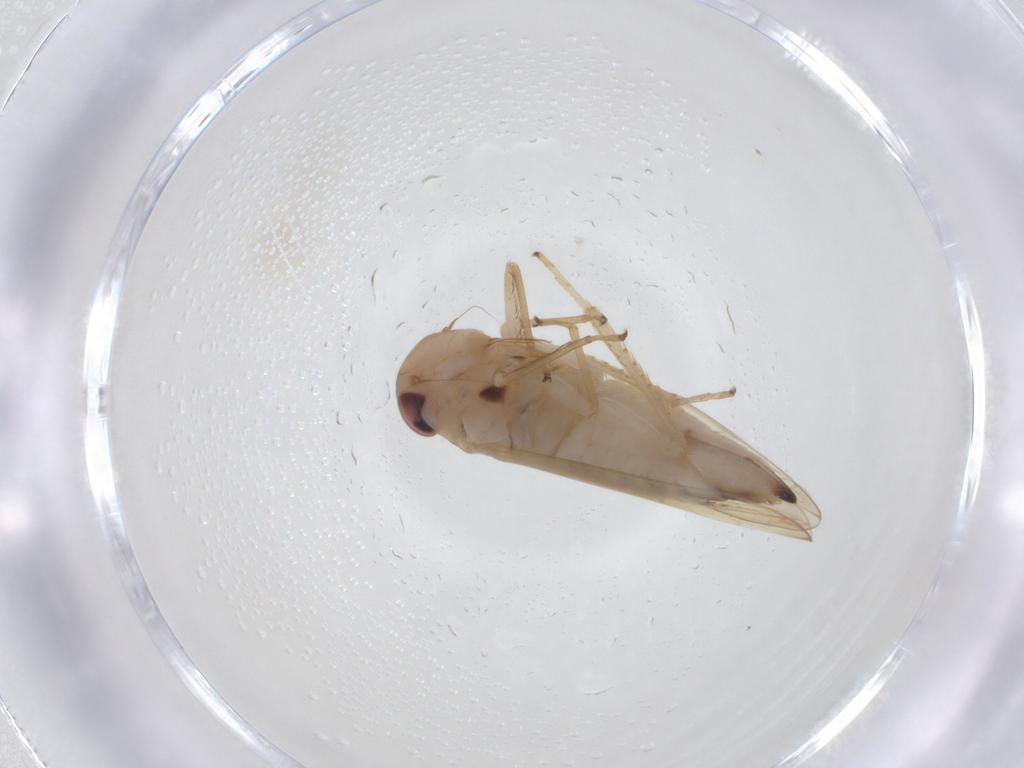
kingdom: Animalia
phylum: Arthropoda
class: Insecta
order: Hemiptera
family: Cicadellidae
